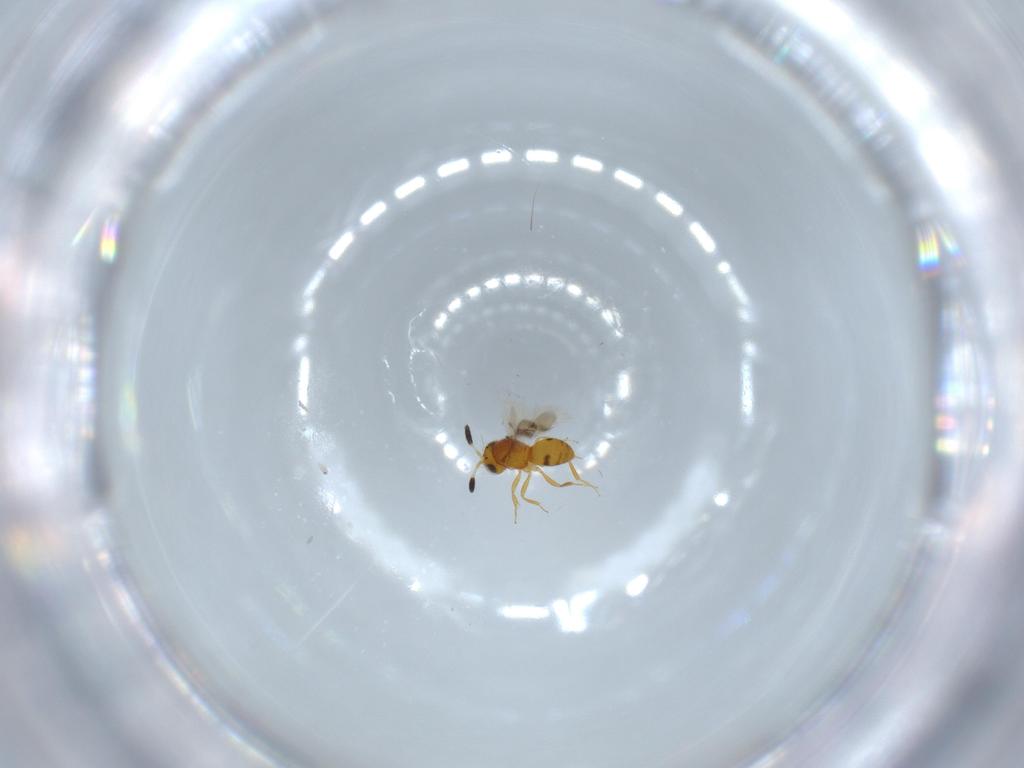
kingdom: Animalia
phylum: Arthropoda
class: Insecta
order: Hymenoptera
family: Scelionidae
